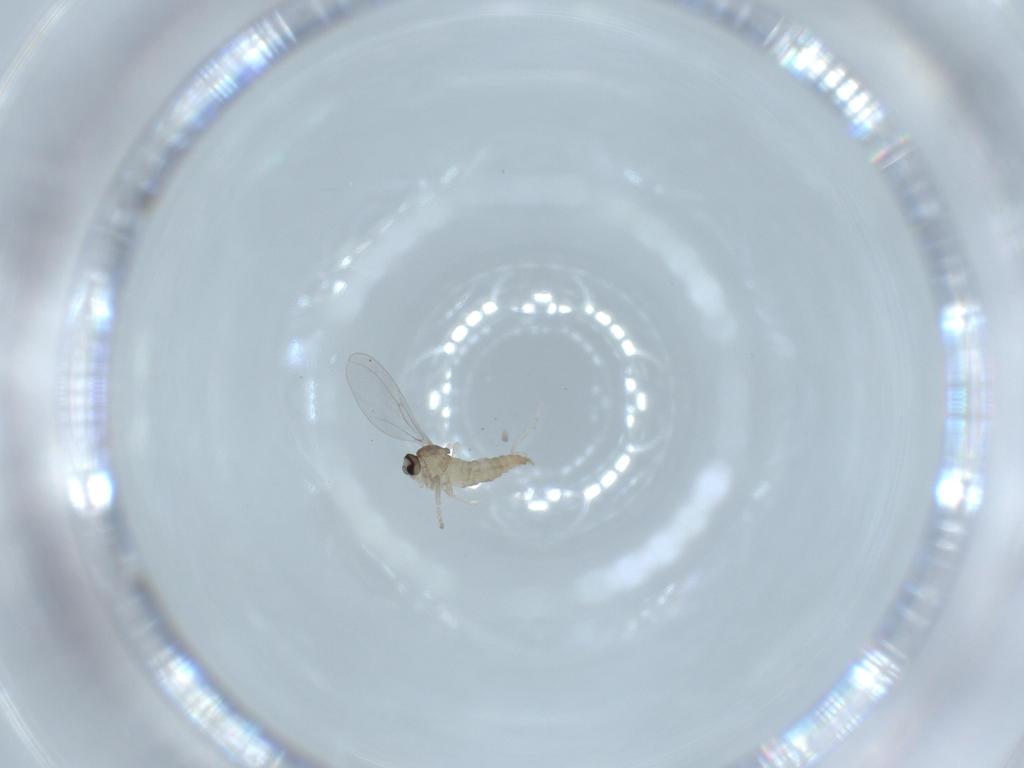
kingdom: Animalia
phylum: Arthropoda
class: Insecta
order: Diptera
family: Cecidomyiidae
